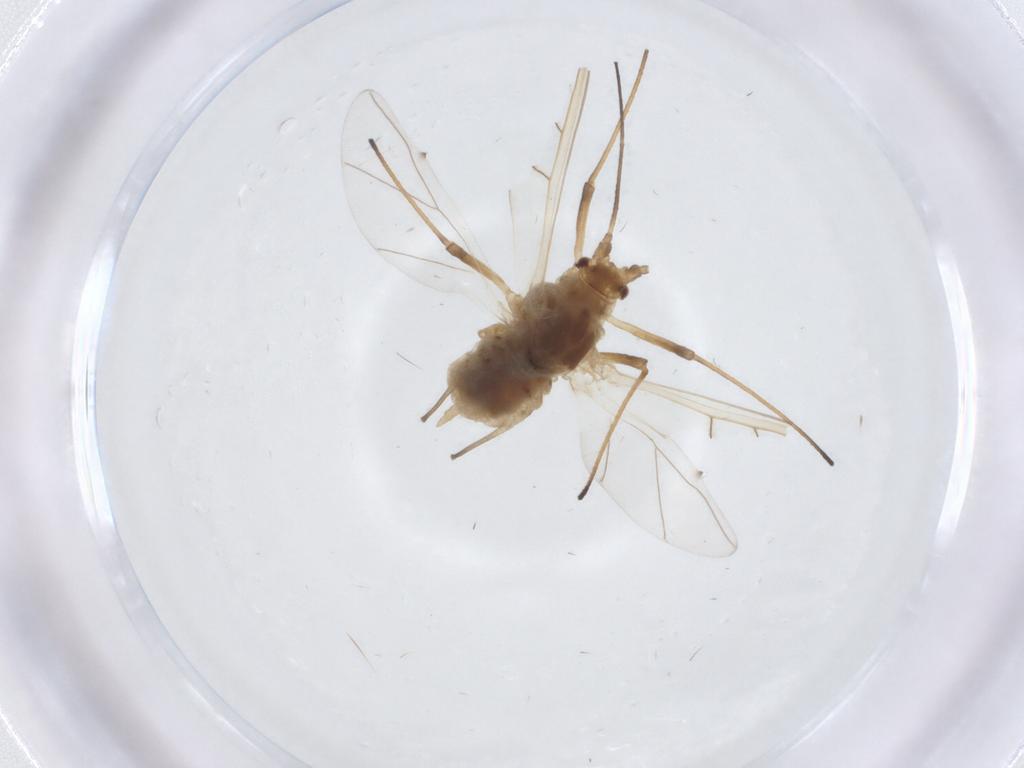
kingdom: Animalia
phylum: Arthropoda
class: Insecta
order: Hemiptera
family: Aphididae
